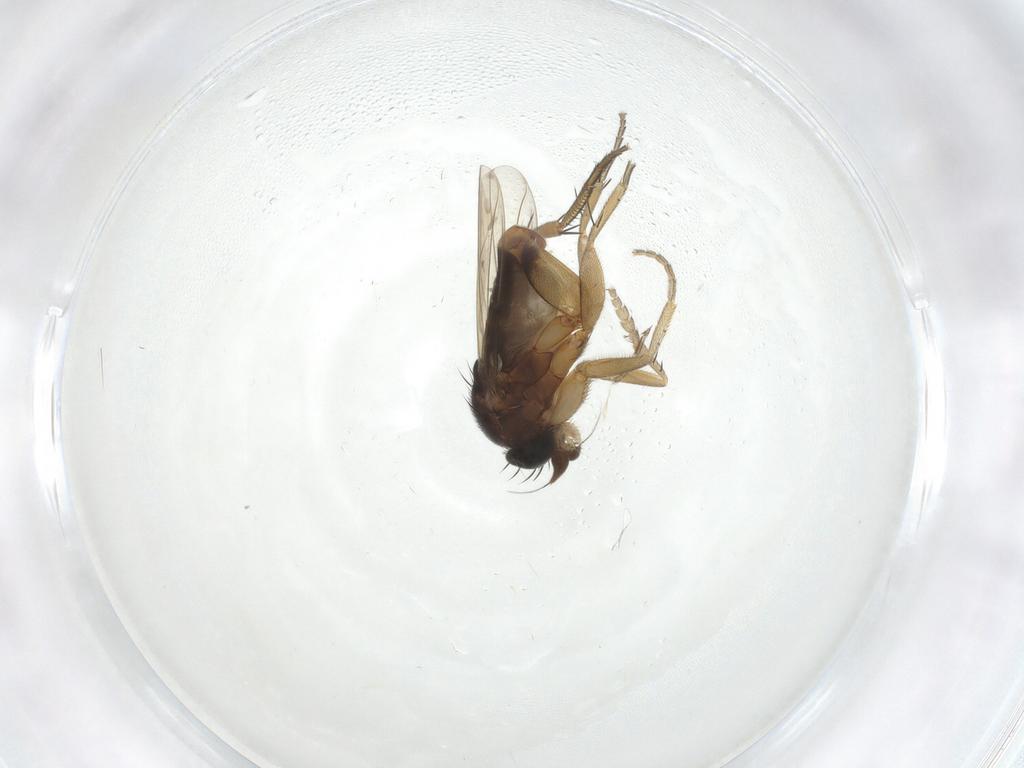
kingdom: Animalia
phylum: Arthropoda
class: Insecta
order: Diptera
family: Phoridae
